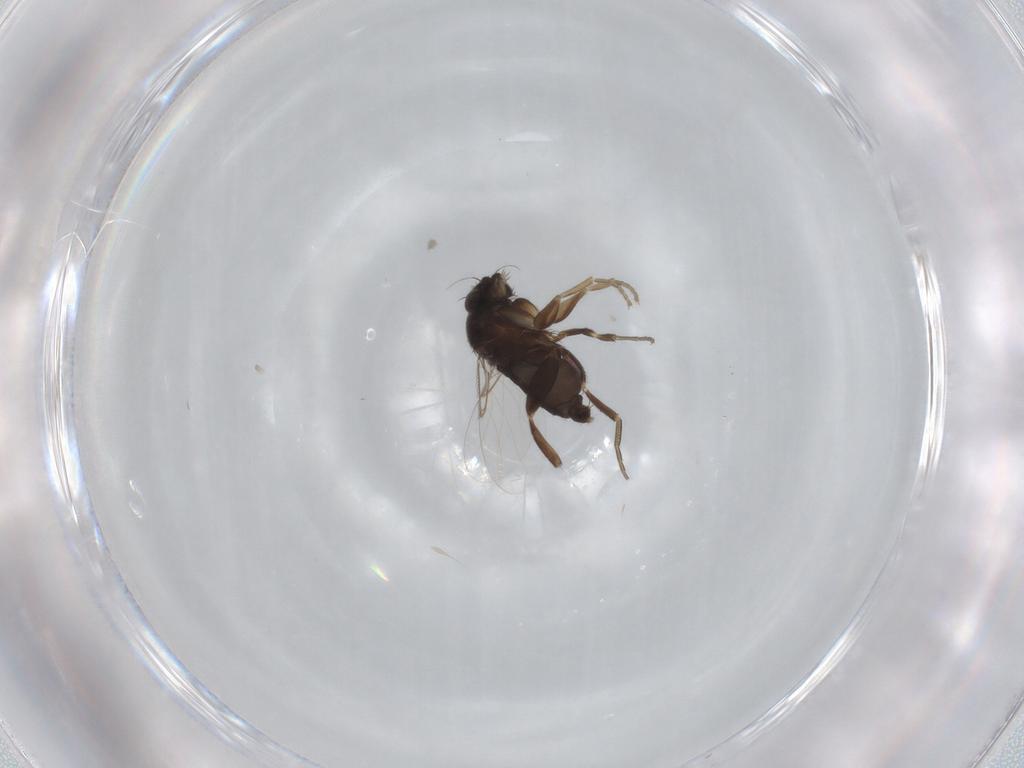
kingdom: Animalia
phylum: Arthropoda
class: Insecta
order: Diptera
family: Phoridae
